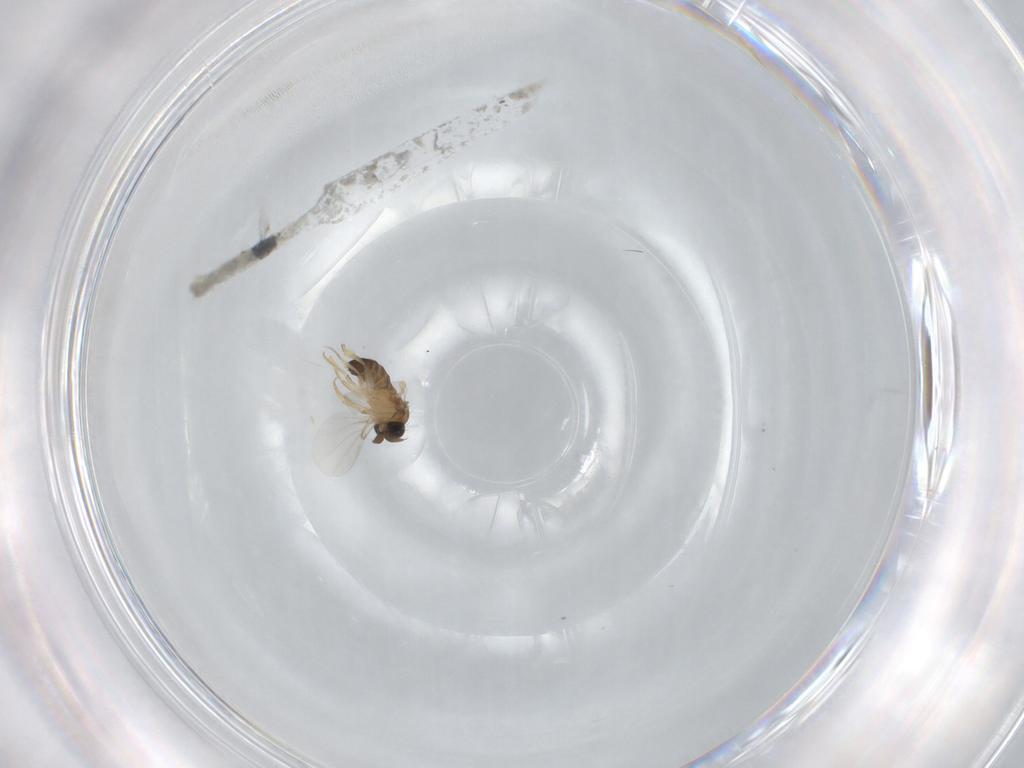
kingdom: Animalia
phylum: Arthropoda
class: Insecta
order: Diptera
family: Phoridae
